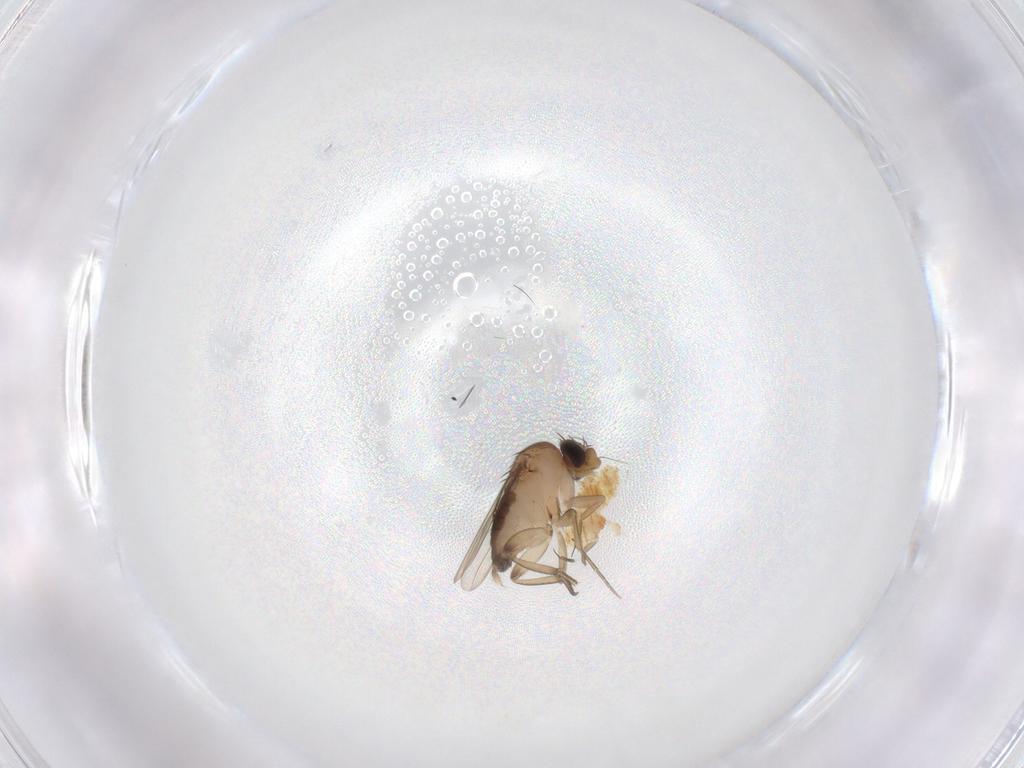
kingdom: Animalia
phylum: Arthropoda
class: Insecta
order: Diptera
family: Phoridae
